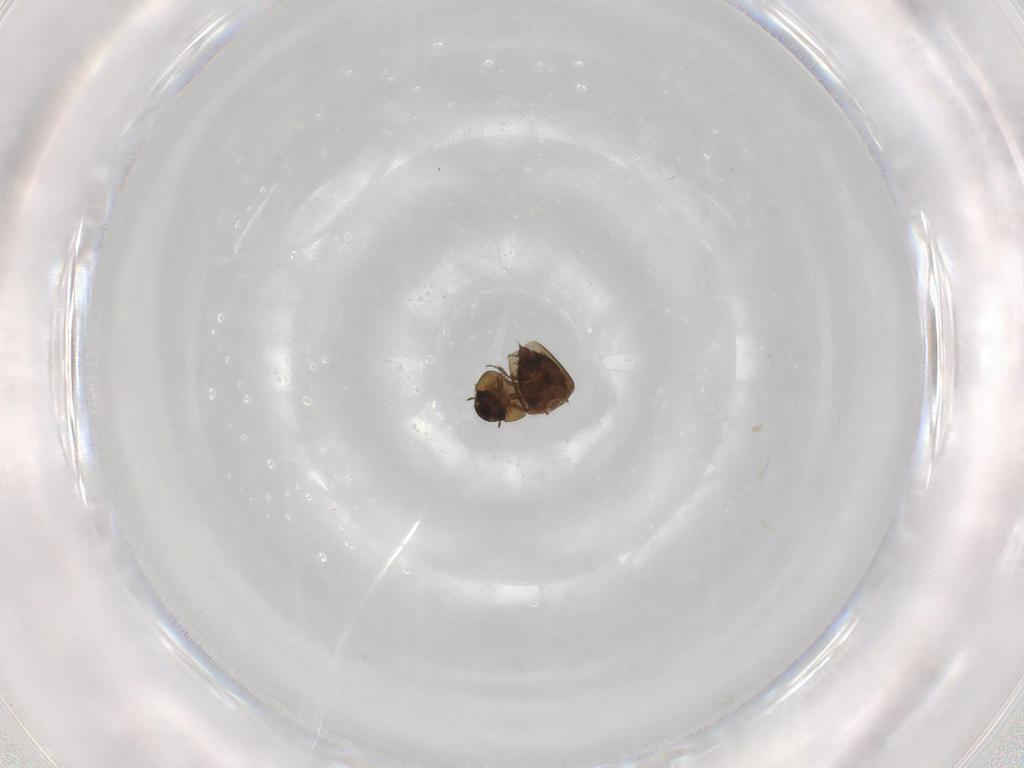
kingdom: Animalia
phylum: Arthropoda
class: Insecta
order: Coleoptera
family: Hydraenidae
